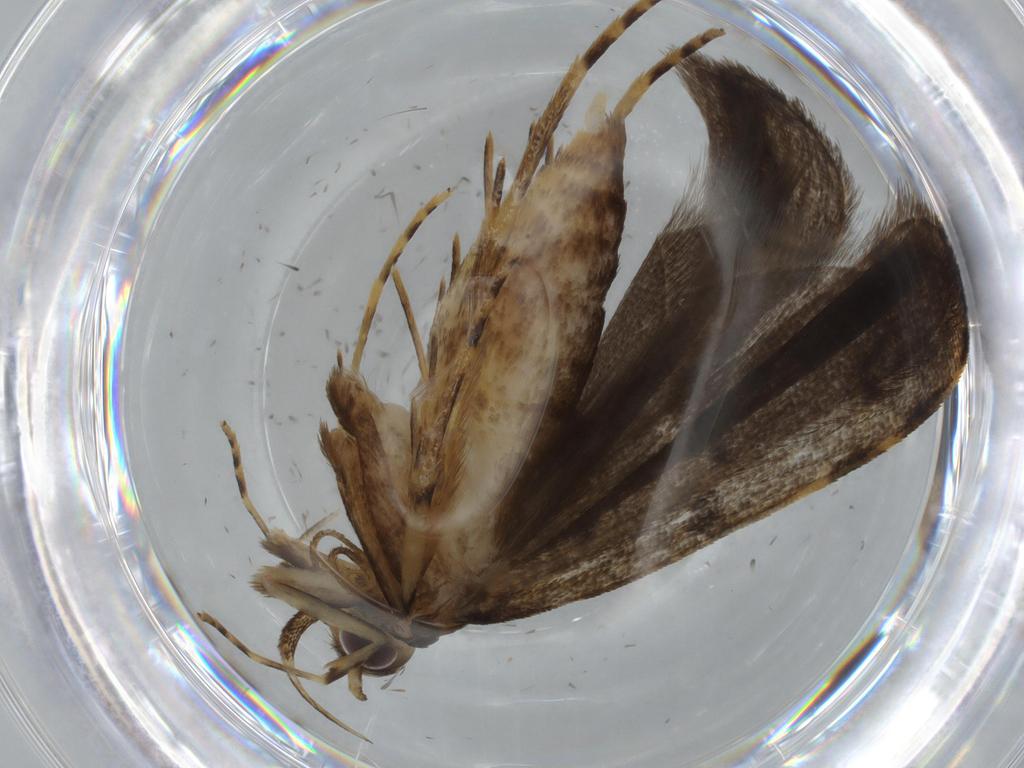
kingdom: Animalia
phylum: Arthropoda
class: Insecta
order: Lepidoptera
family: Autostichidae
